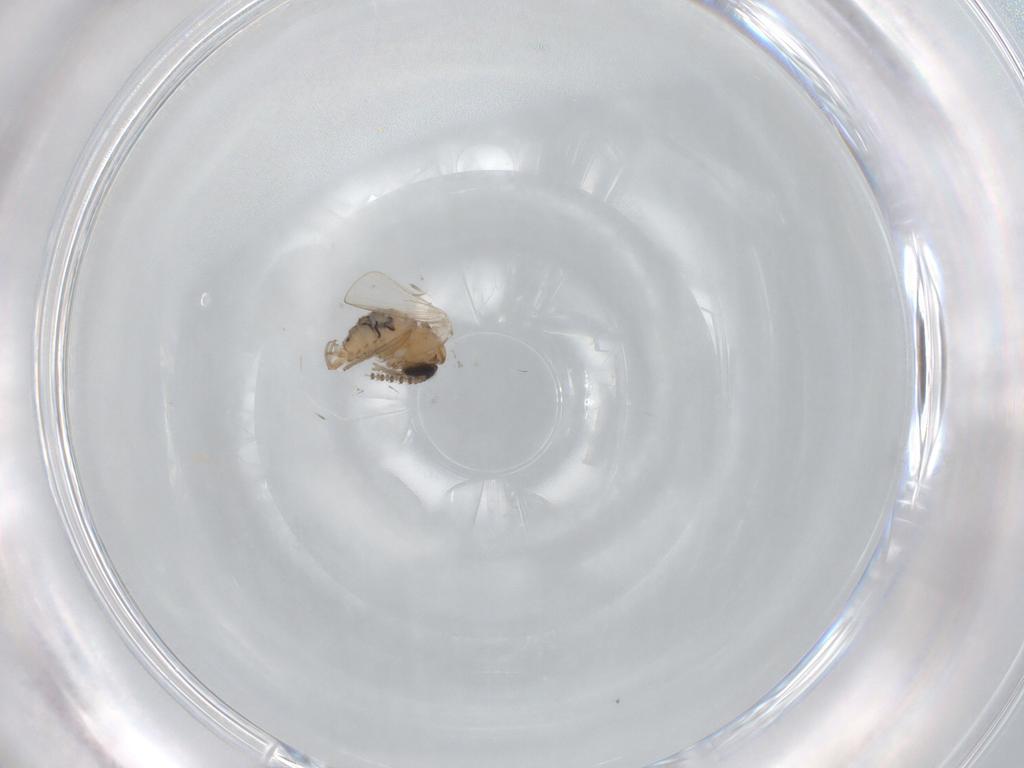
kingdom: Animalia
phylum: Arthropoda
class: Insecta
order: Diptera
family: Psychodidae
